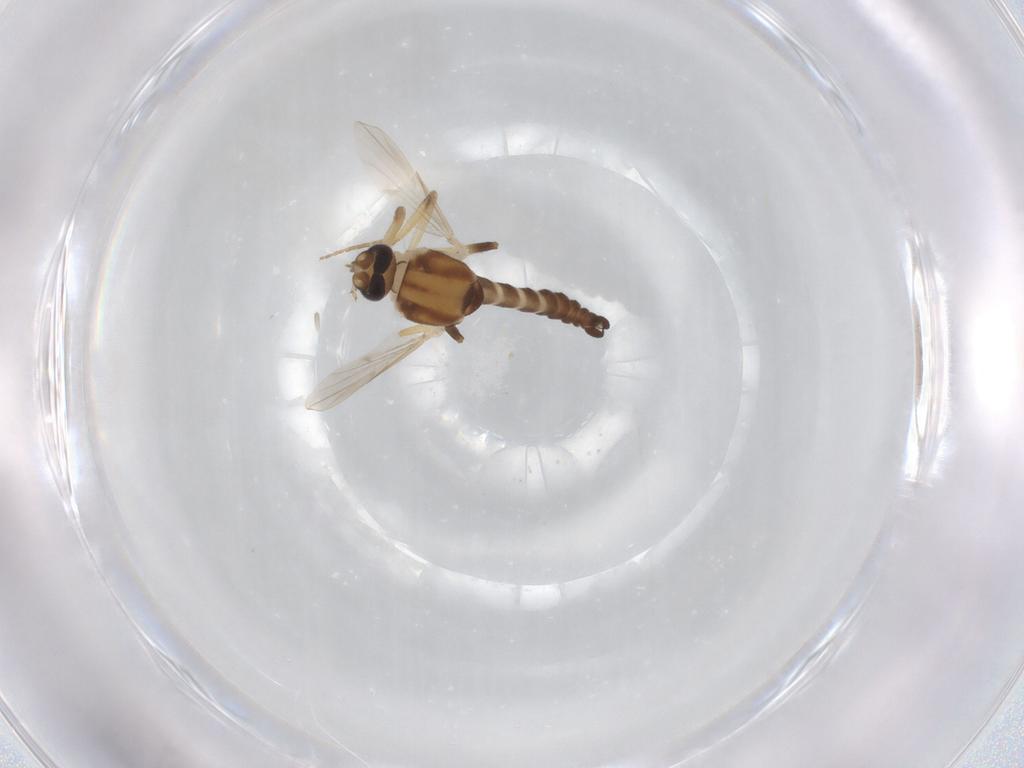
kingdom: Animalia
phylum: Arthropoda
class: Insecta
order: Diptera
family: Ceratopogonidae
